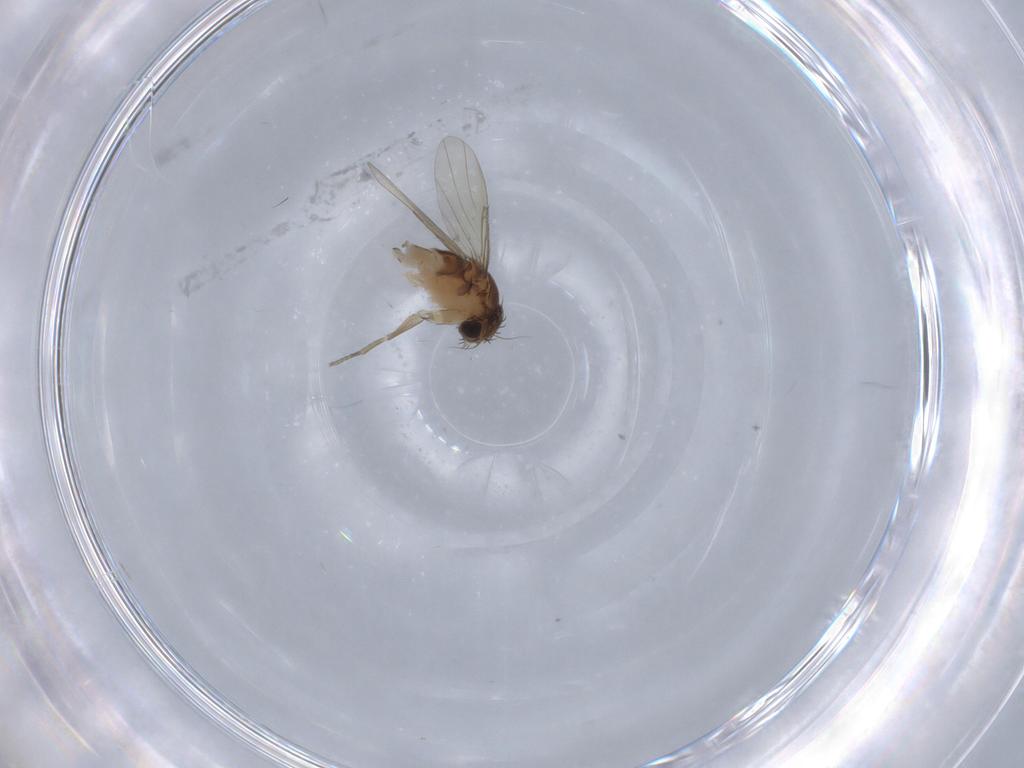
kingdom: Animalia
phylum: Arthropoda
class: Insecta
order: Diptera
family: Phoridae
